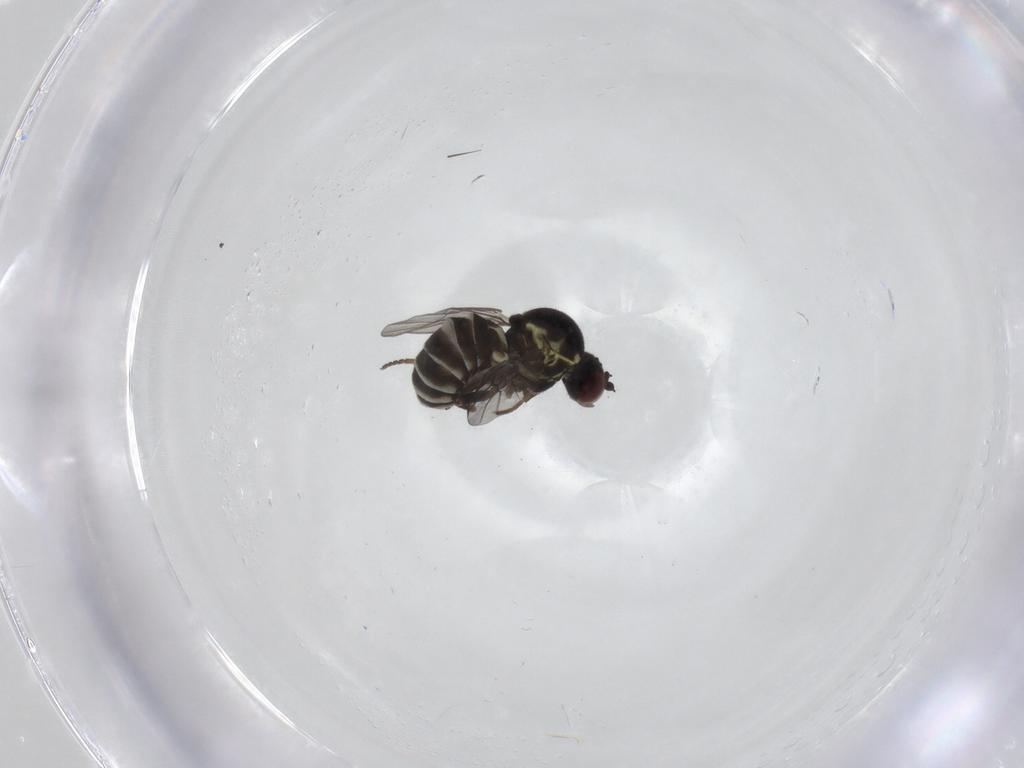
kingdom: Animalia
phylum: Arthropoda
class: Insecta
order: Diptera
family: Bombyliidae
